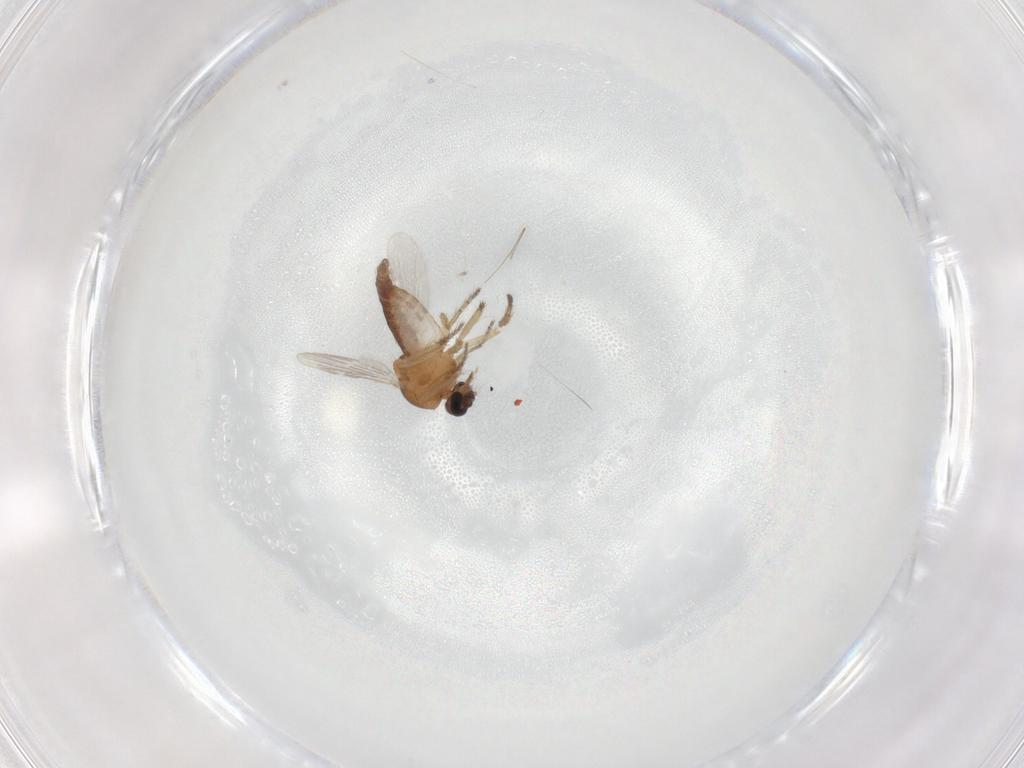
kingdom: Animalia
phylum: Arthropoda
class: Insecta
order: Diptera
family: Ceratopogonidae
